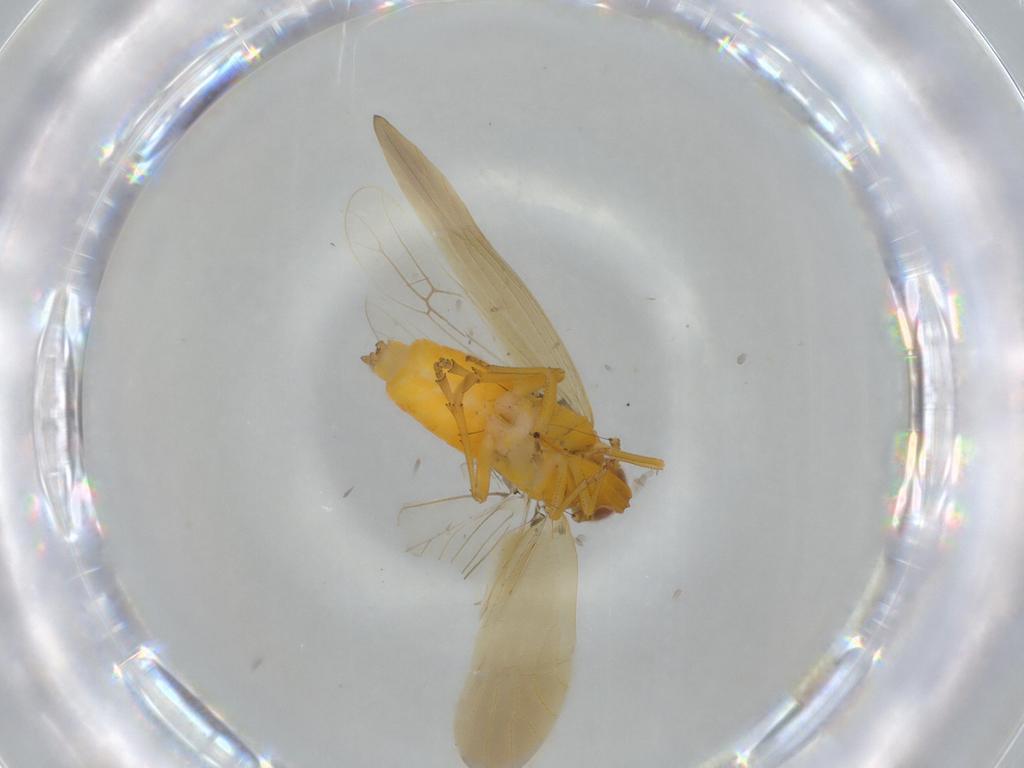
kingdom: Animalia
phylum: Arthropoda
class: Insecta
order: Hemiptera
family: Delphacidae
